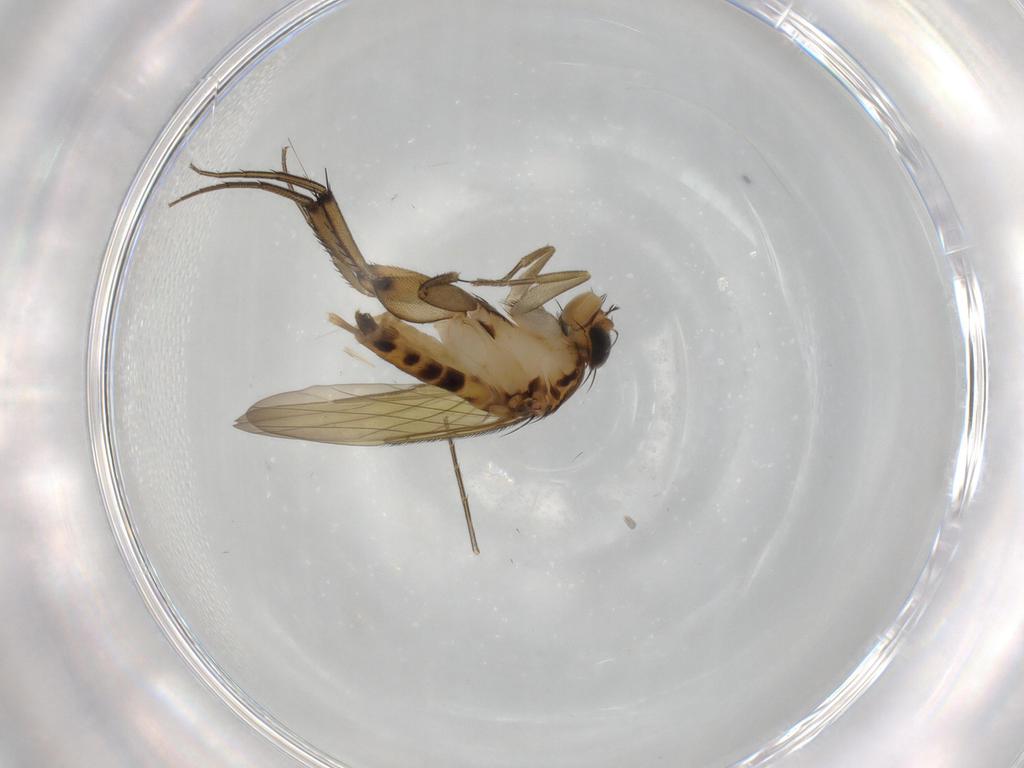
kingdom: Animalia
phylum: Arthropoda
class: Insecta
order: Diptera
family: Phoridae
